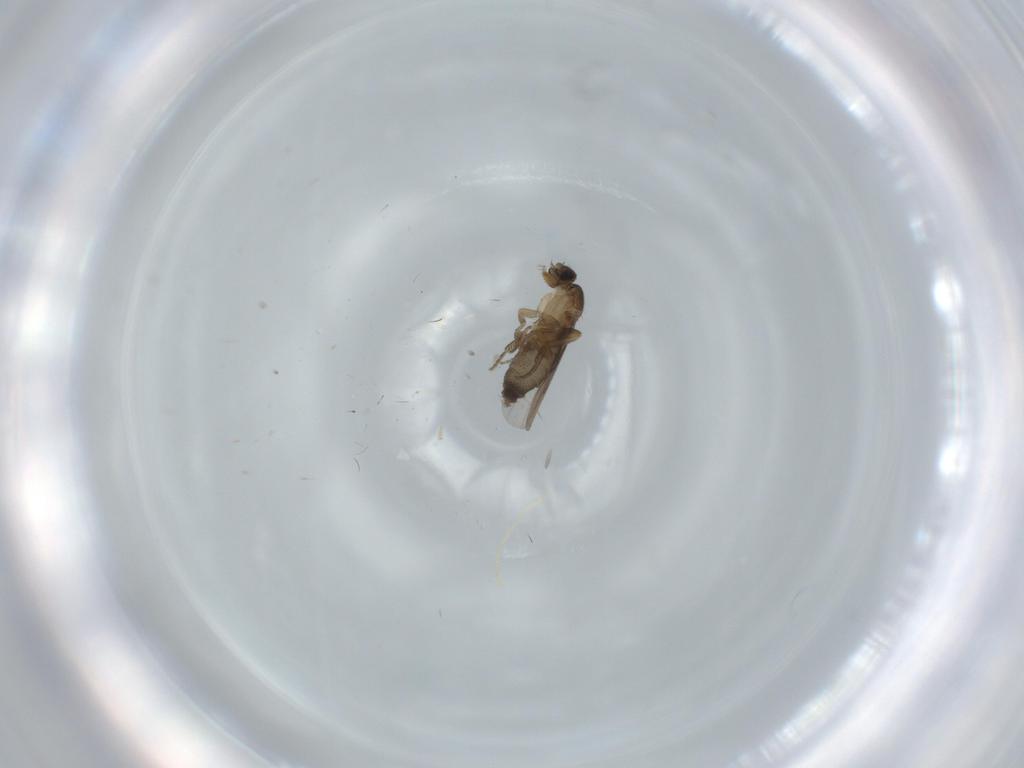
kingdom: Animalia
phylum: Arthropoda
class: Insecta
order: Diptera
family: Phoridae
